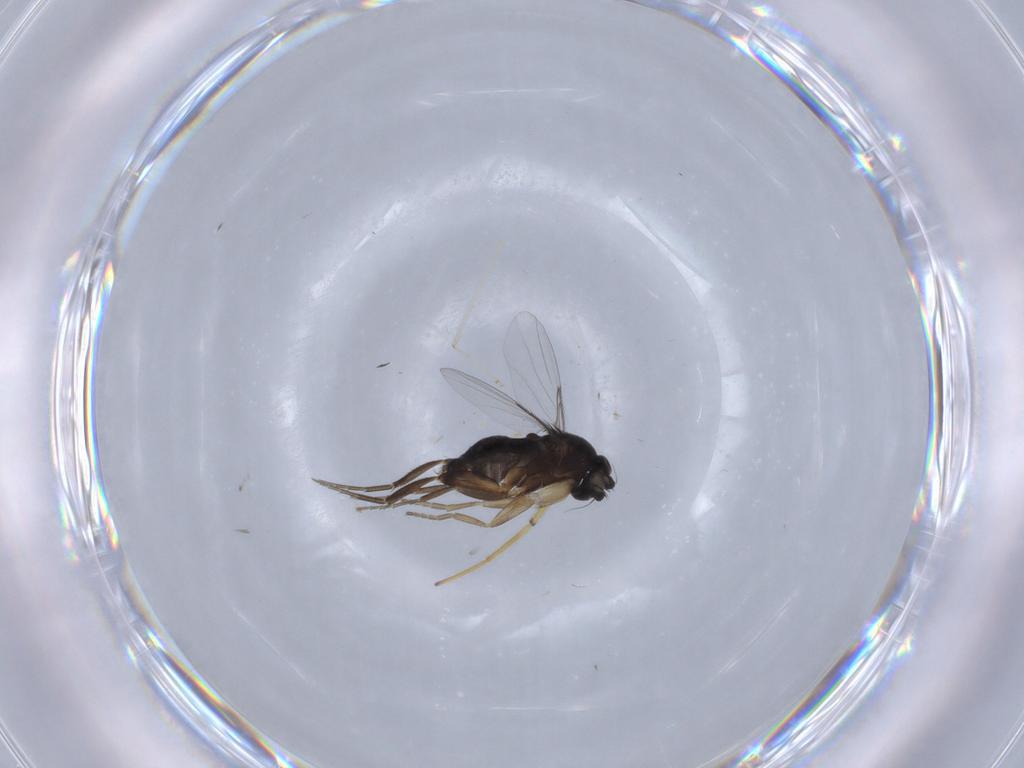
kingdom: Animalia
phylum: Arthropoda
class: Insecta
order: Diptera
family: Phoridae
